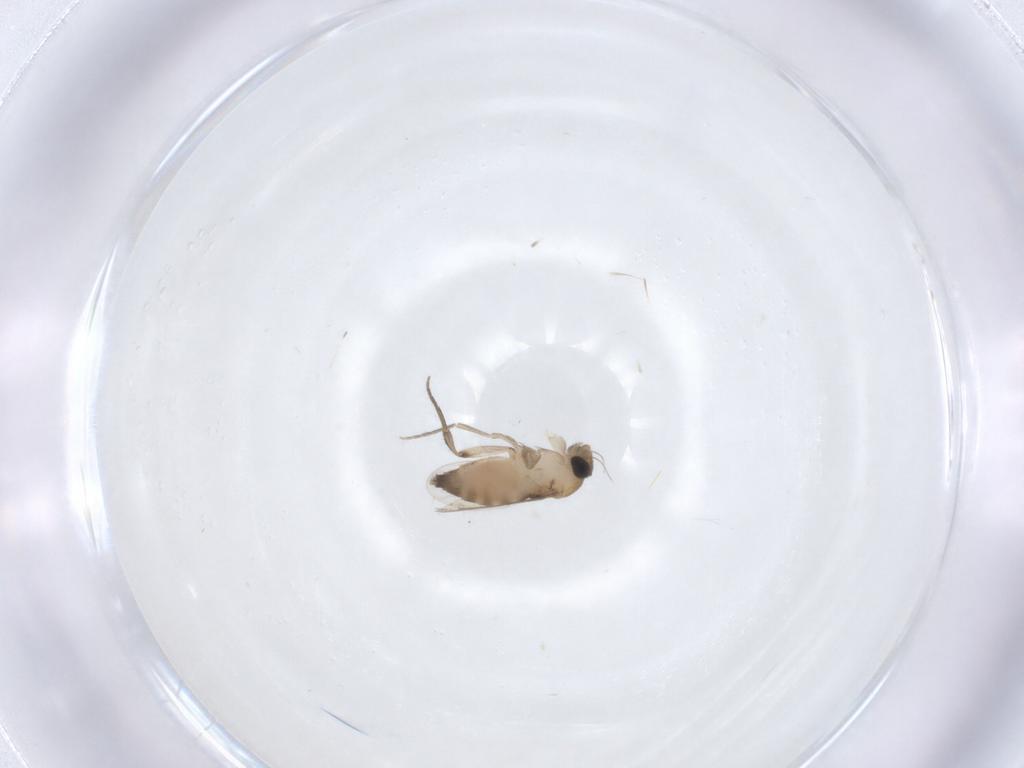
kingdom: Animalia
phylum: Arthropoda
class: Insecta
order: Diptera
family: Phoridae
